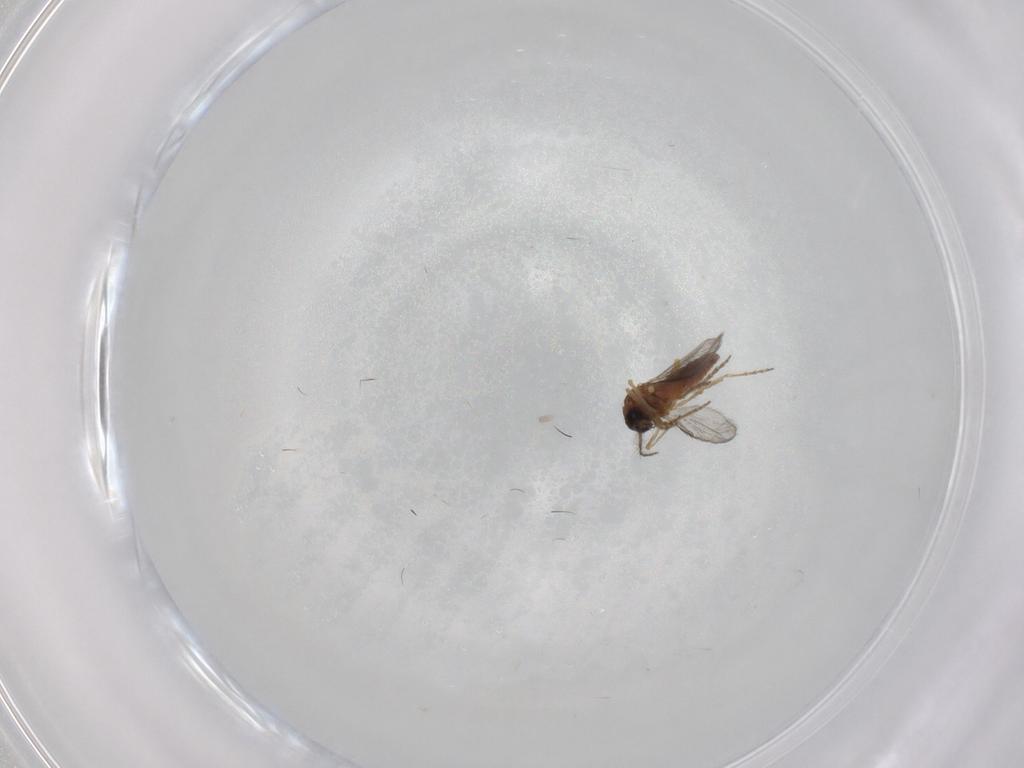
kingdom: Animalia
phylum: Arthropoda
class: Insecta
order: Diptera
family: Ceratopogonidae
